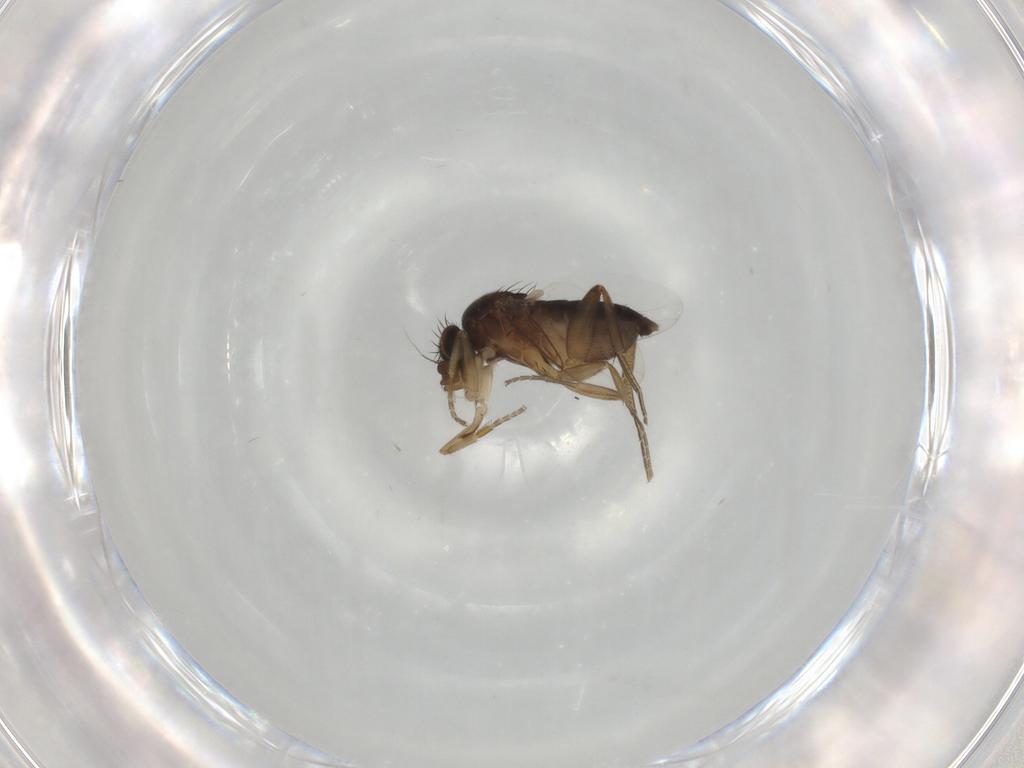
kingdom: Animalia
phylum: Arthropoda
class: Insecta
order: Diptera
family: Phoridae
